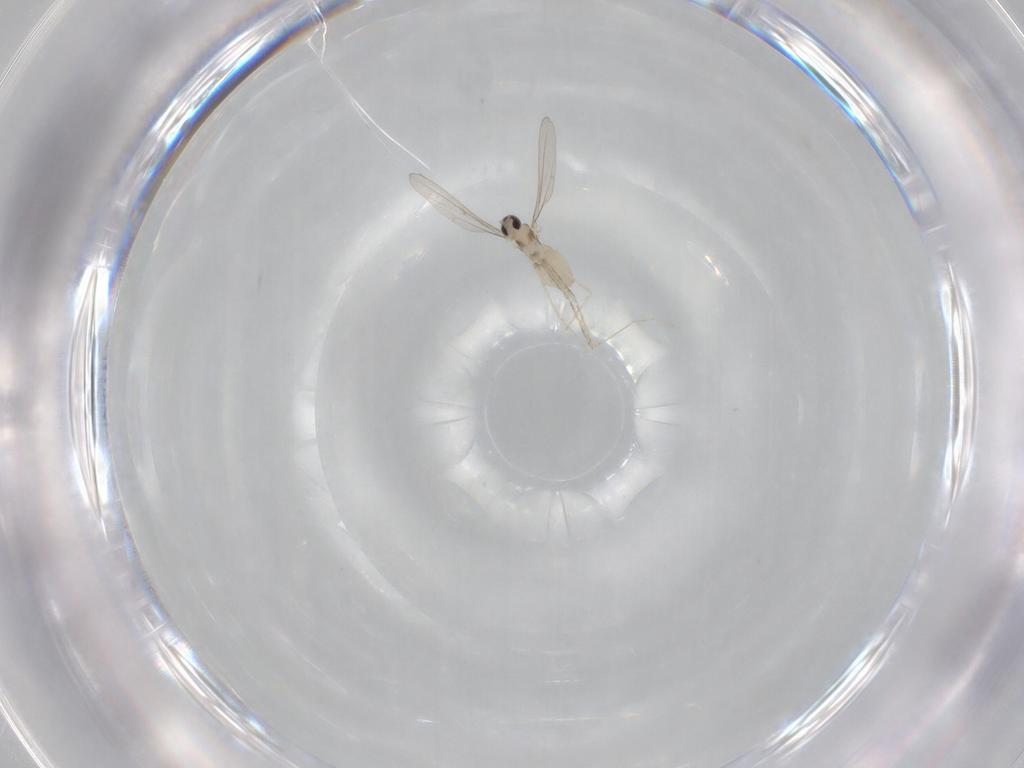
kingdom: Animalia
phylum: Arthropoda
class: Insecta
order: Diptera
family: Cecidomyiidae
